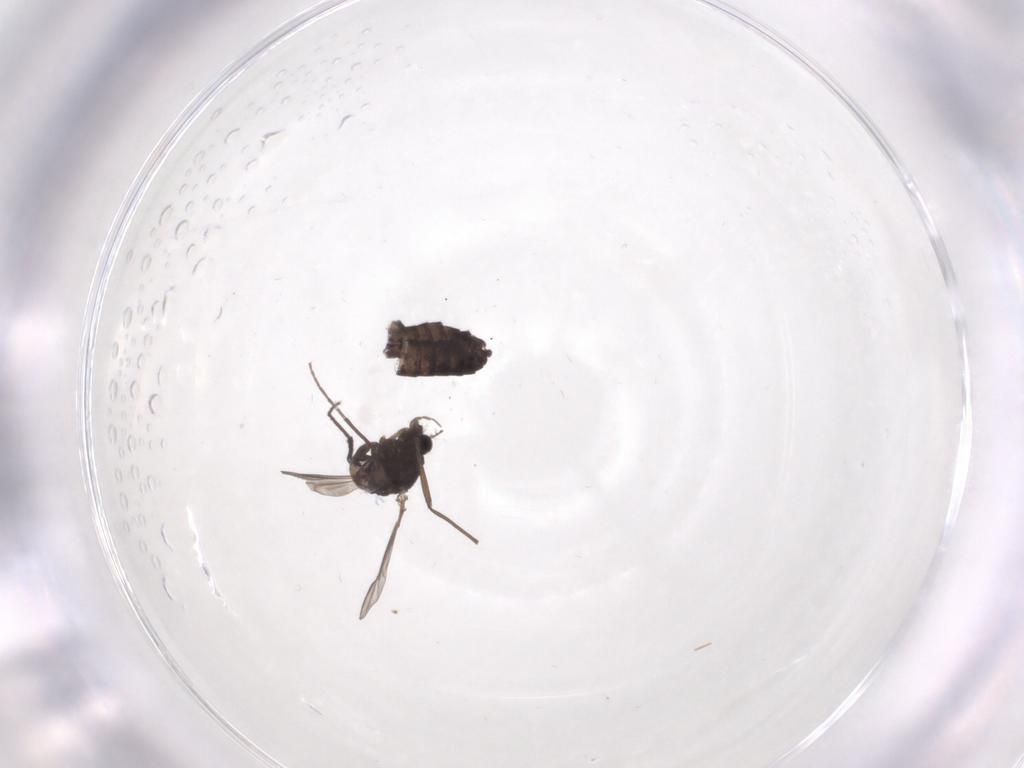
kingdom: Animalia
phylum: Arthropoda
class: Insecta
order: Diptera
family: Chironomidae
